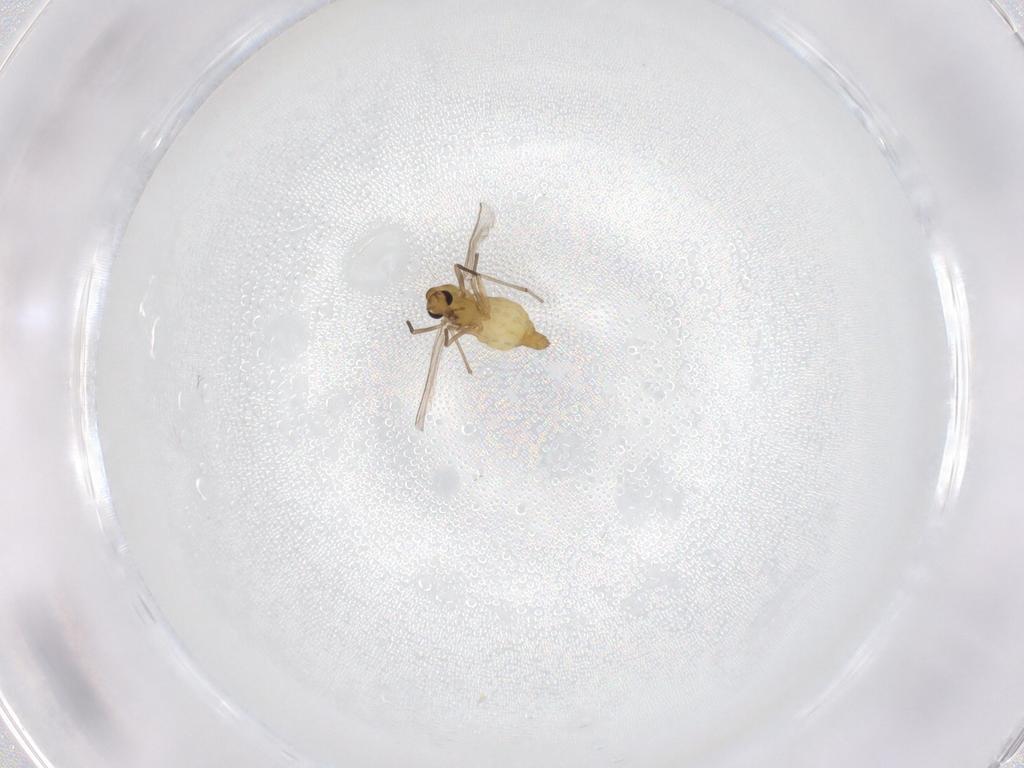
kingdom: Animalia
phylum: Arthropoda
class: Insecta
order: Diptera
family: Chironomidae
